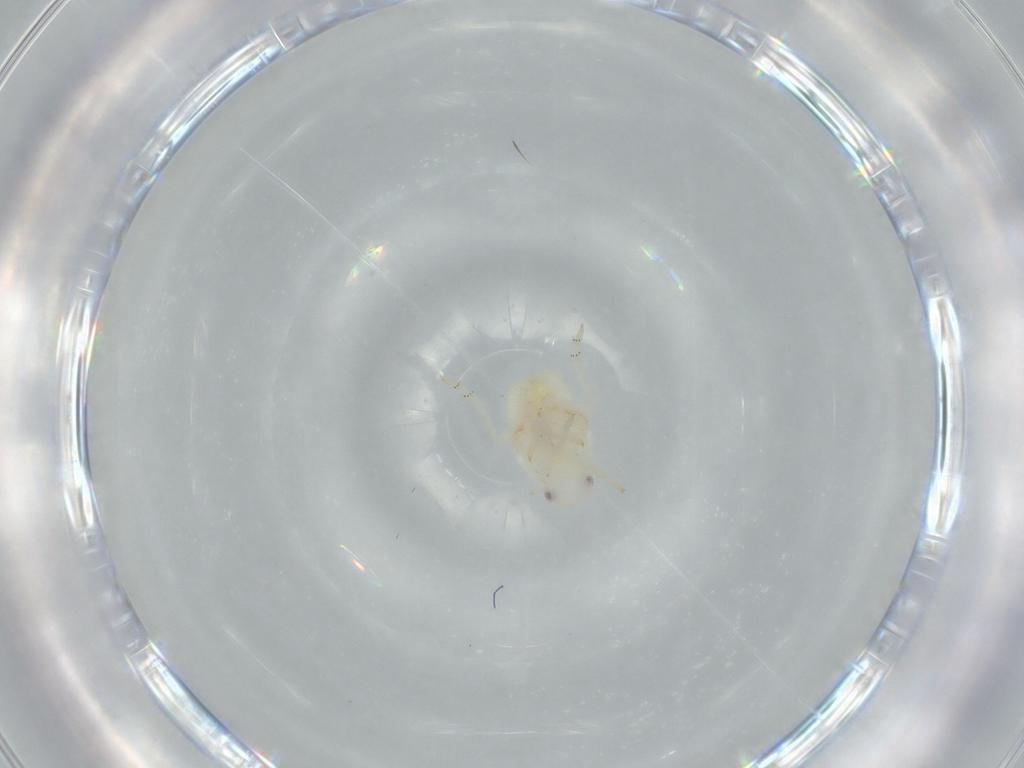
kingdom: Animalia
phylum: Arthropoda
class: Insecta
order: Hemiptera
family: Flatidae
